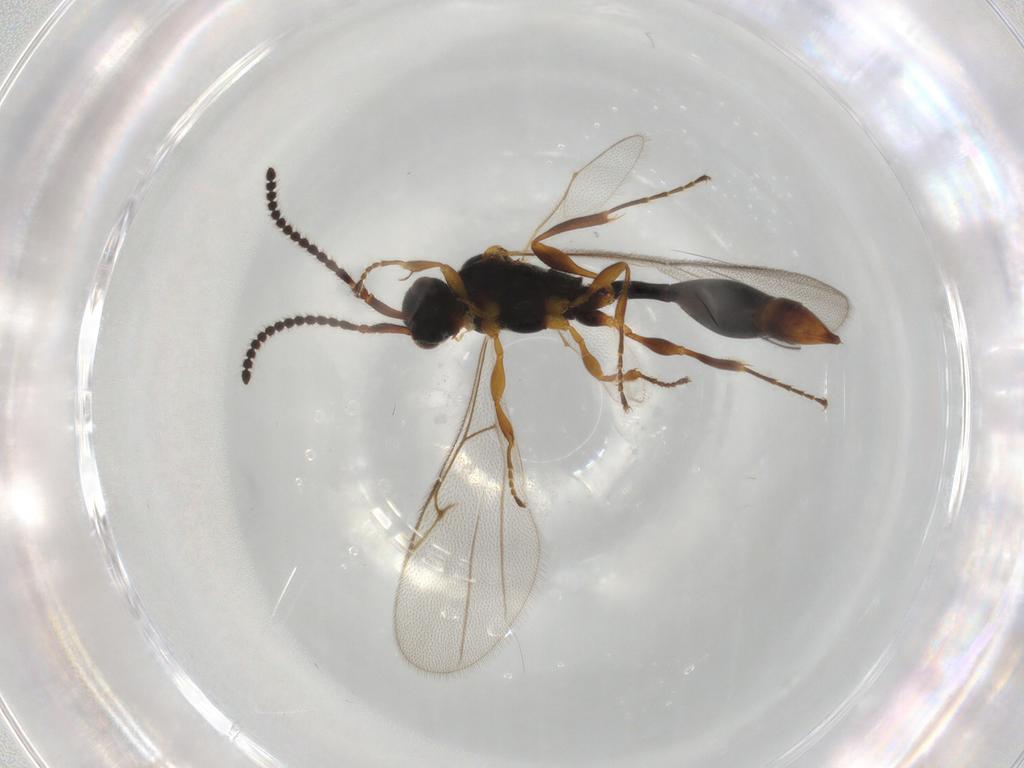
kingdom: Animalia
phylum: Arthropoda
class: Insecta
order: Hymenoptera
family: Diapriidae
